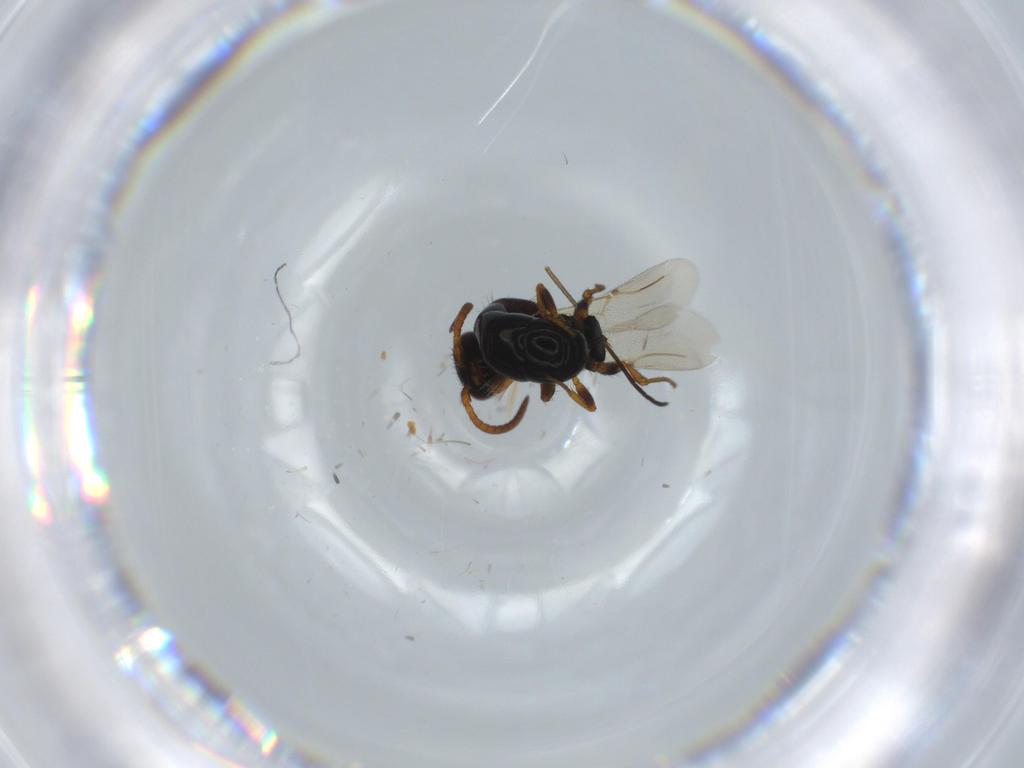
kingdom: Animalia
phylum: Arthropoda
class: Insecta
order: Hymenoptera
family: Bethylidae
